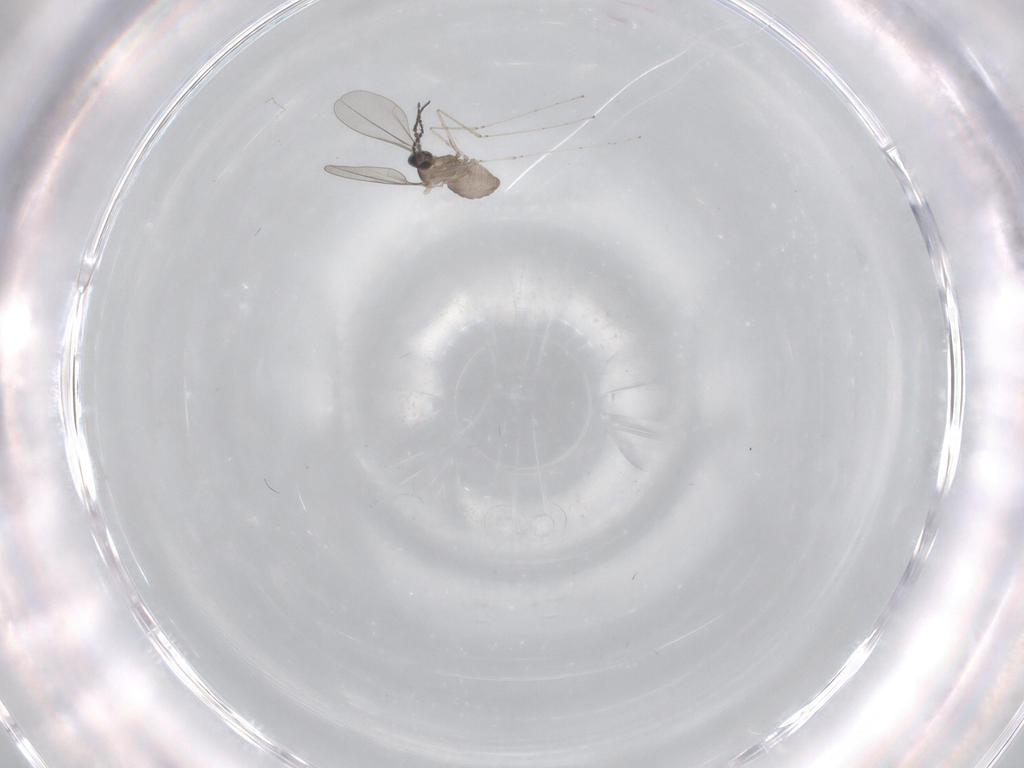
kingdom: Animalia
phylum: Arthropoda
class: Insecta
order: Diptera
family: Cecidomyiidae
